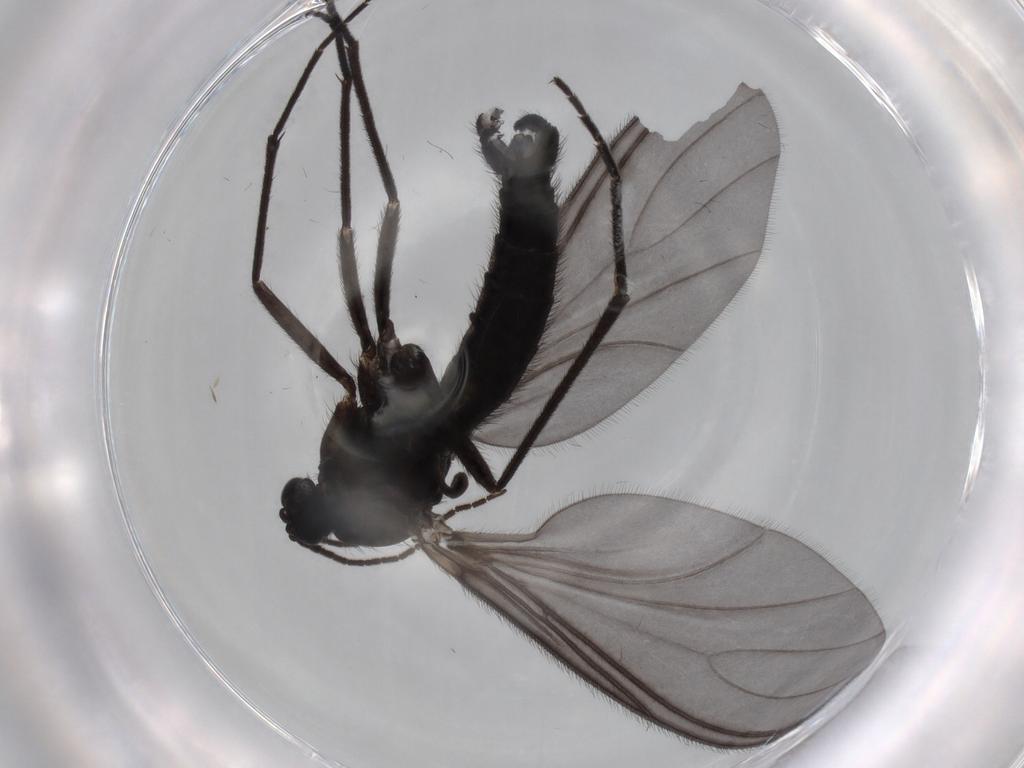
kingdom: Animalia
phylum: Arthropoda
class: Insecta
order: Diptera
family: Sciaridae
